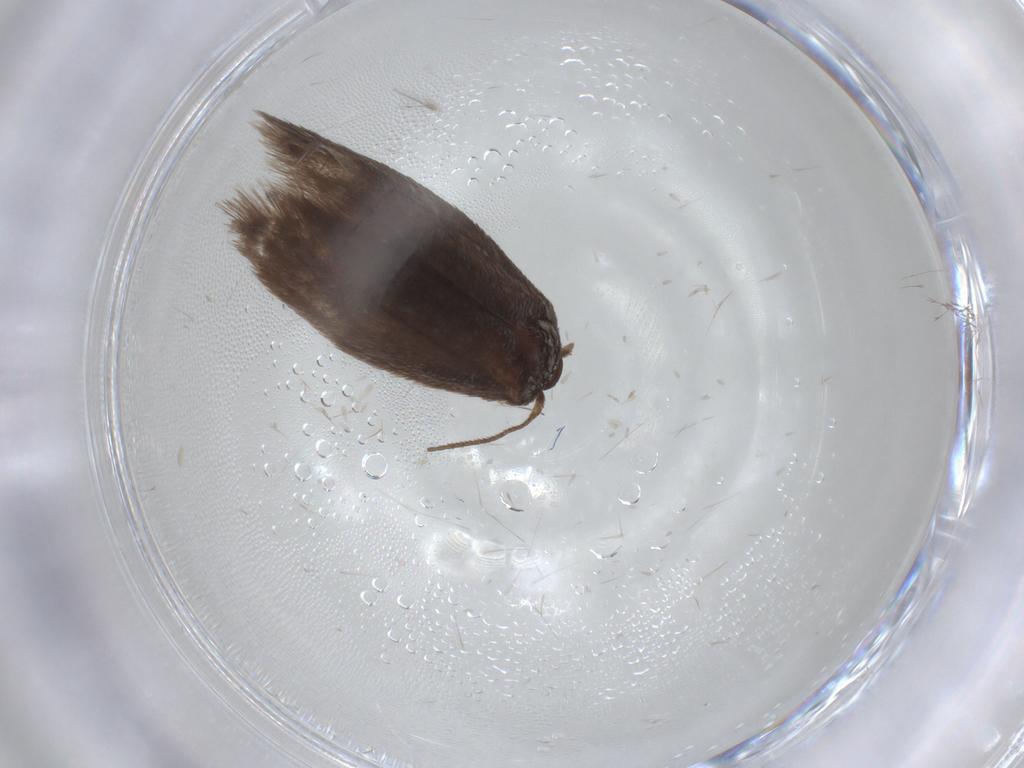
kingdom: Animalia
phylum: Arthropoda
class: Insecta
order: Lepidoptera
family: Limacodidae
